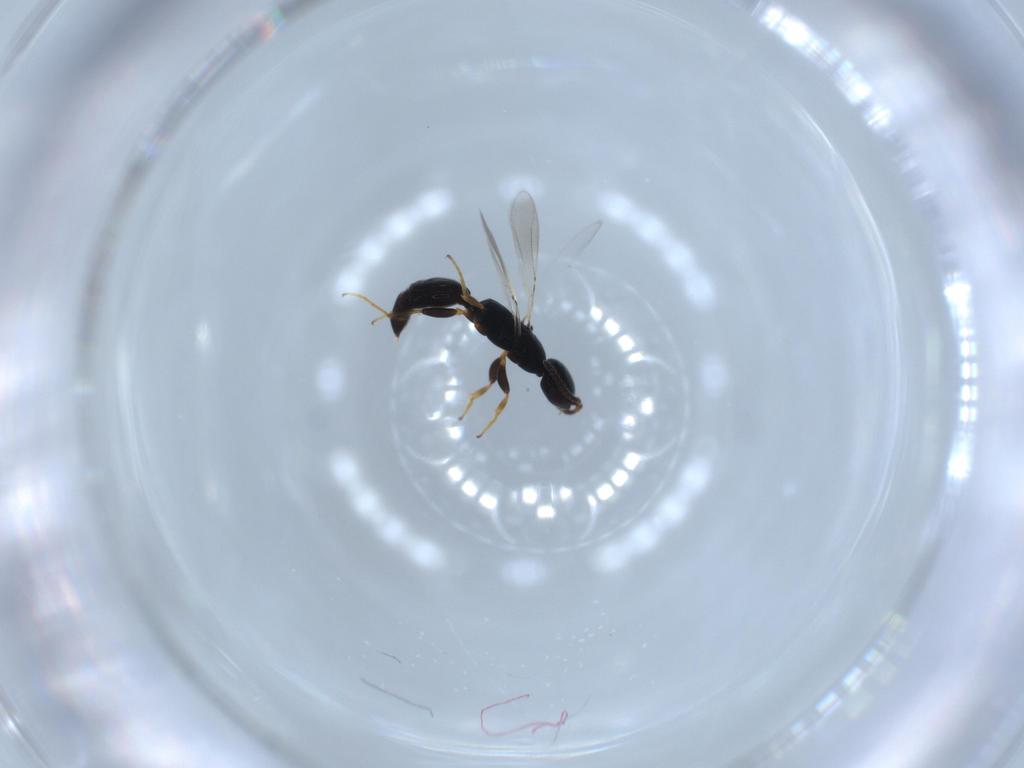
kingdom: Animalia
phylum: Arthropoda
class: Insecta
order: Hymenoptera
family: Bethylidae
